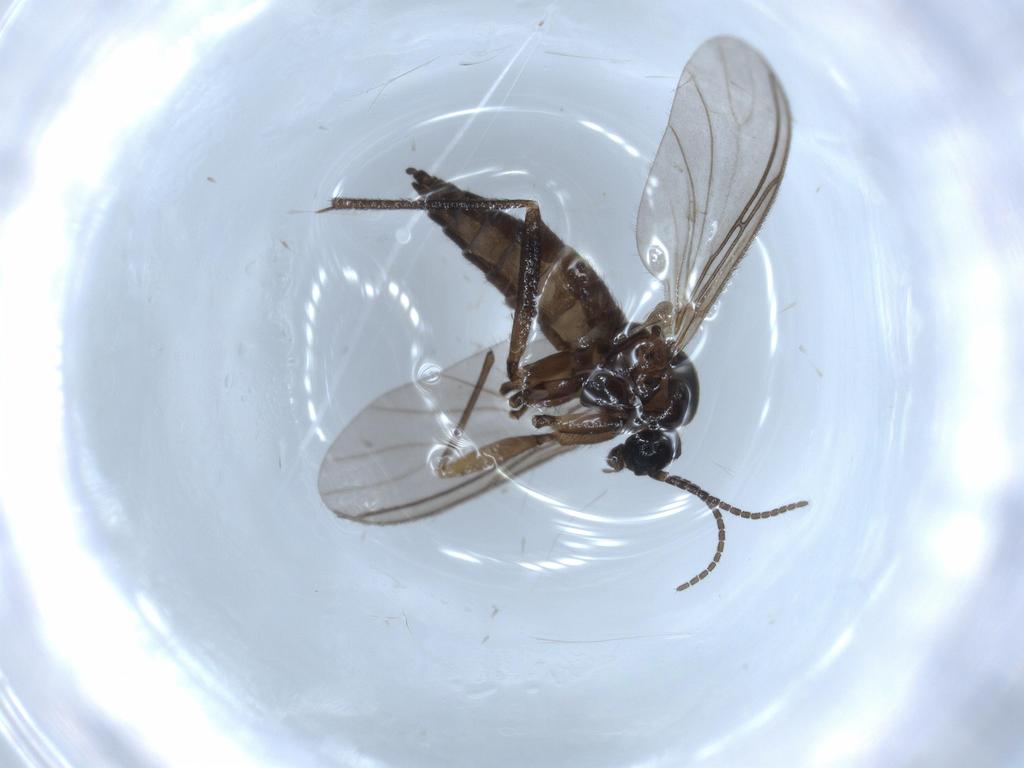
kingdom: Animalia
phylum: Arthropoda
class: Insecta
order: Diptera
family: Sciaridae
